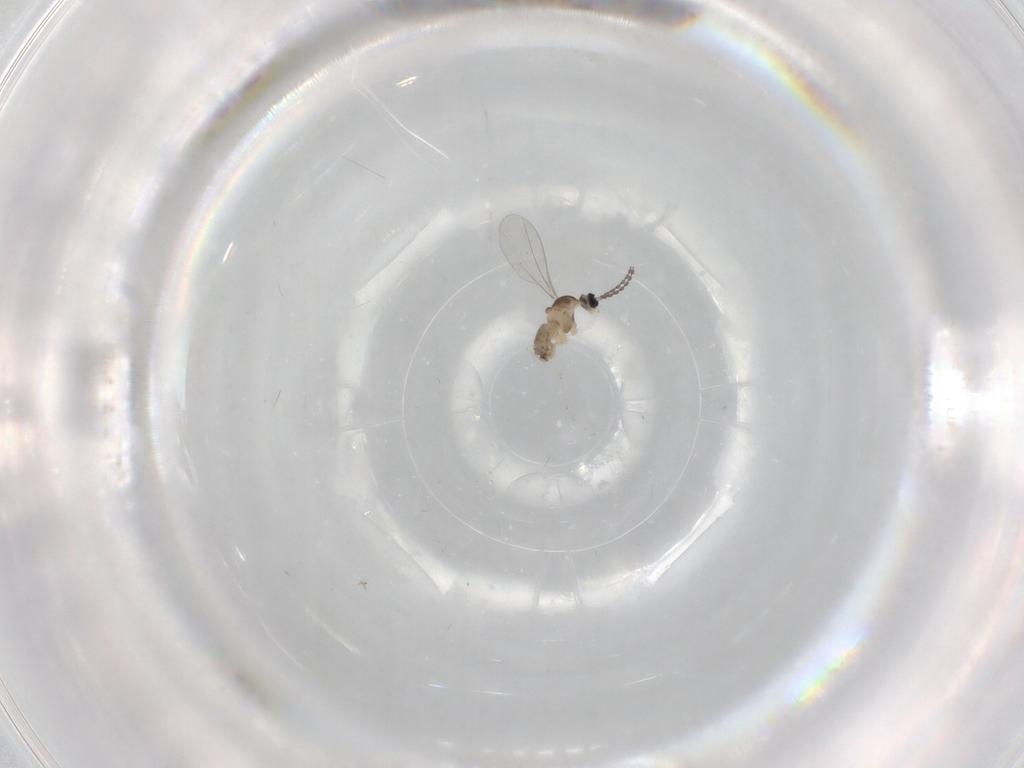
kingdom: Animalia
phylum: Arthropoda
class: Insecta
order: Diptera
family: Cecidomyiidae
